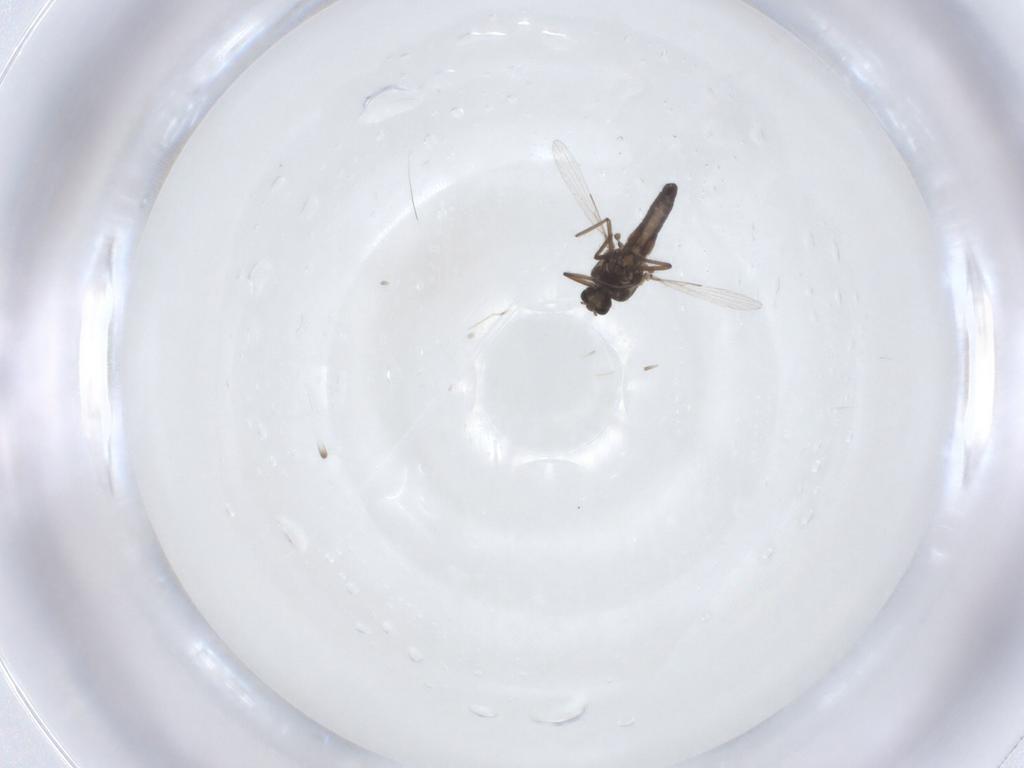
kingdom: Animalia
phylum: Arthropoda
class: Insecta
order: Diptera
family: Ceratopogonidae
